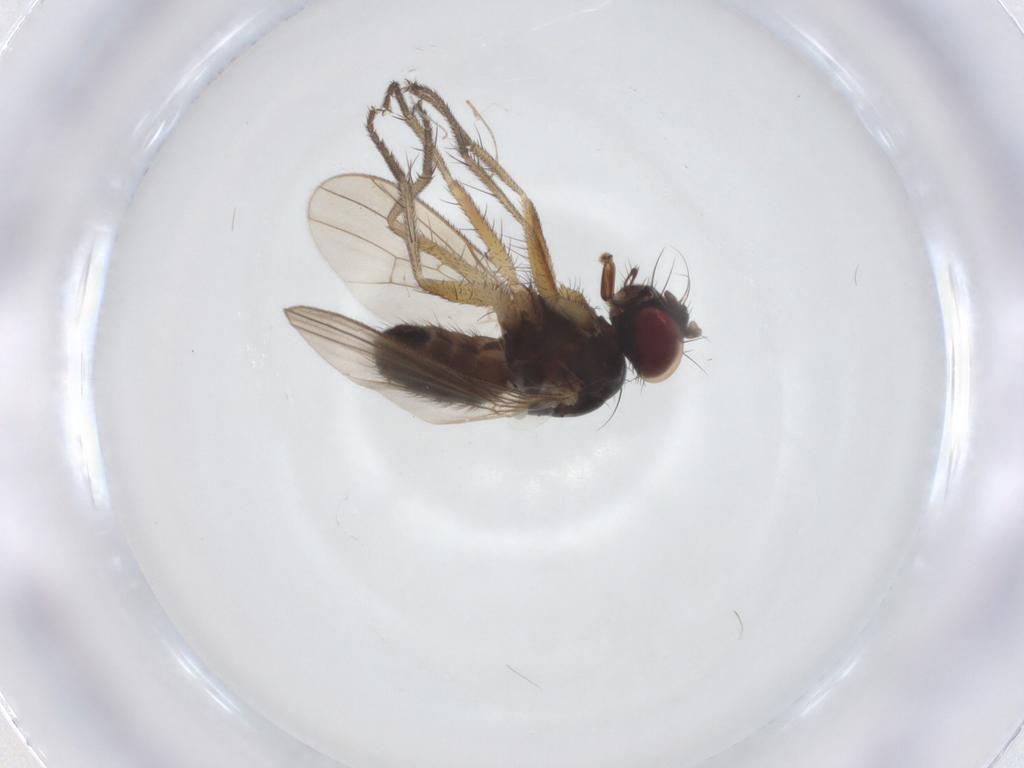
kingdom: Animalia
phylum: Arthropoda
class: Insecta
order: Diptera
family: Muscidae
